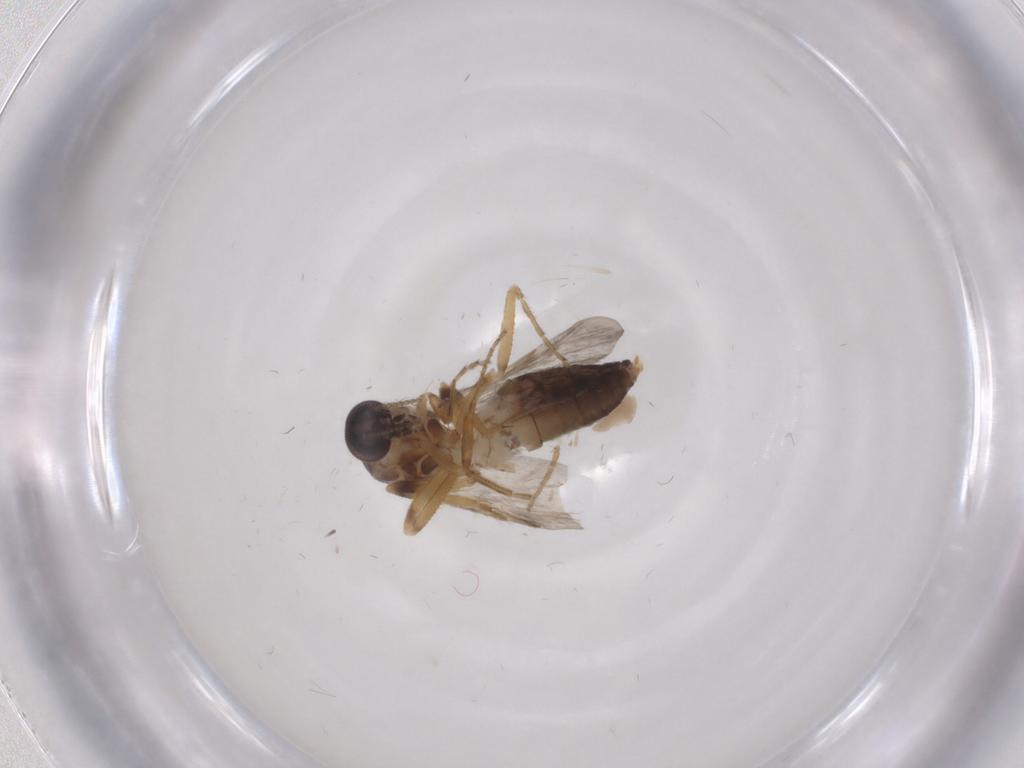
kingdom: Animalia
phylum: Arthropoda
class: Insecta
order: Diptera
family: Ceratopogonidae
